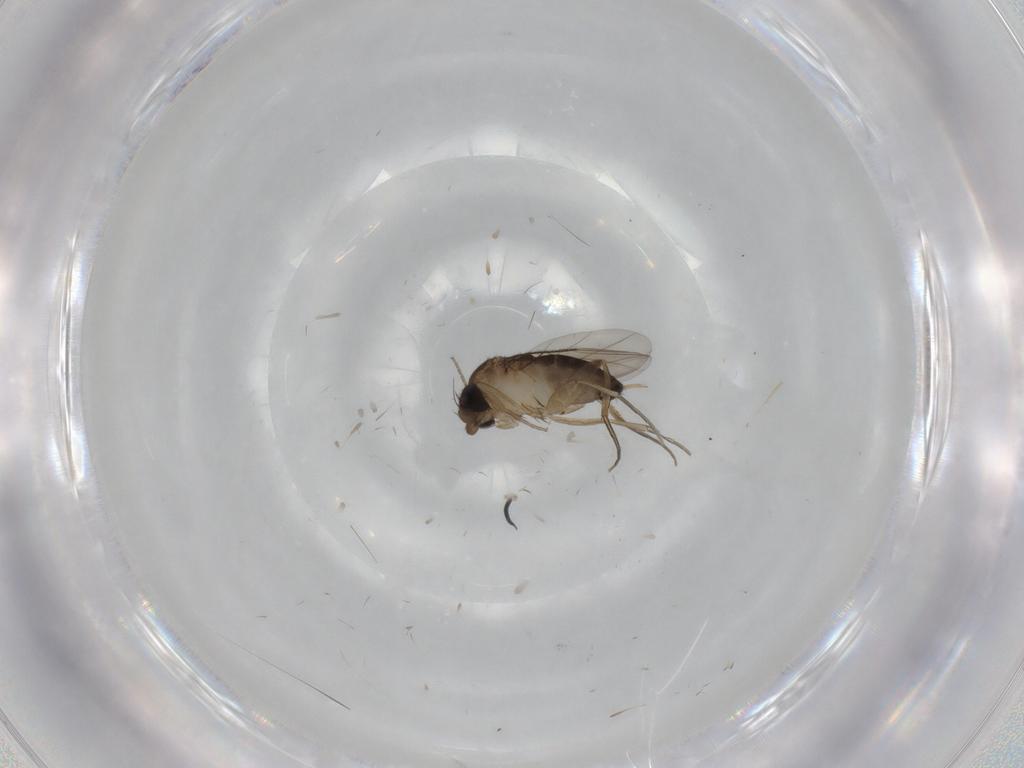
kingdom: Animalia
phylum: Arthropoda
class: Insecta
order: Diptera
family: Phoridae
